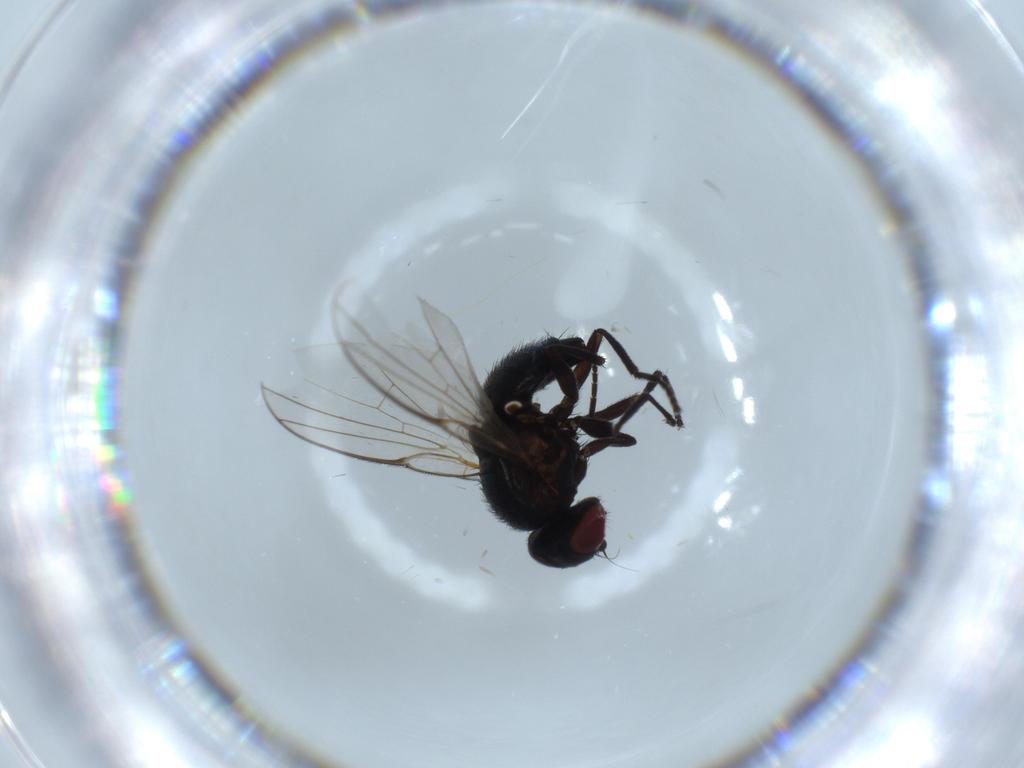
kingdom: Animalia
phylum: Arthropoda
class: Insecta
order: Diptera
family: Agromyzidae
